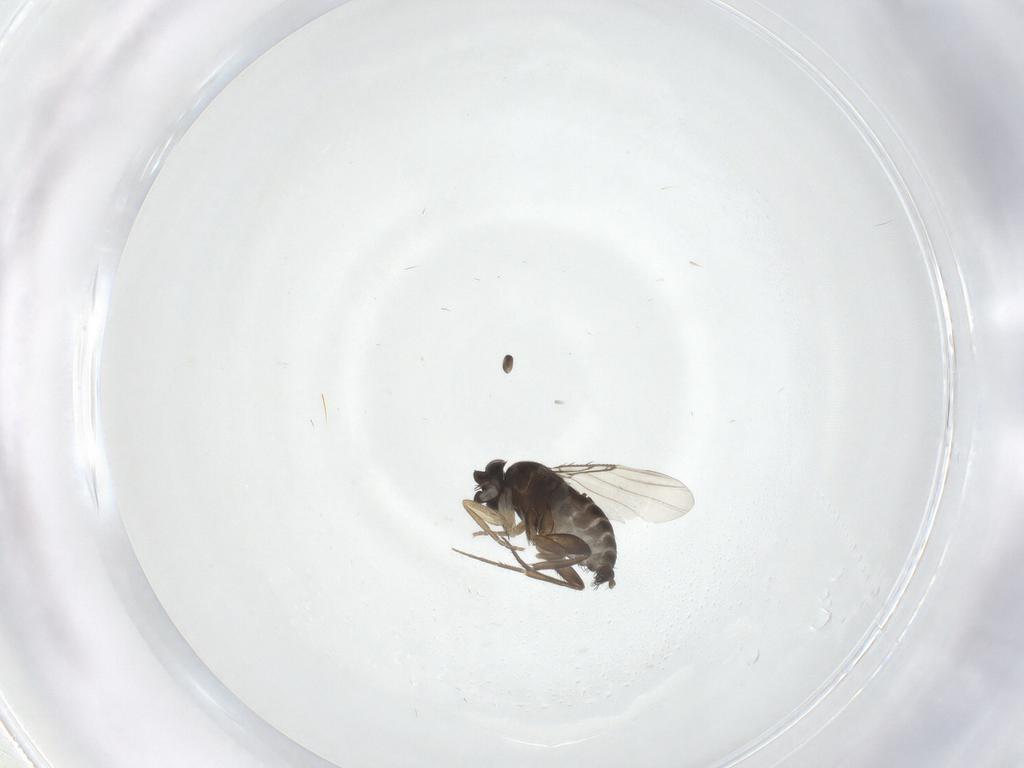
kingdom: Animalia
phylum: Arthropoda
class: Insecta
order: Diptera
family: Phoridae
